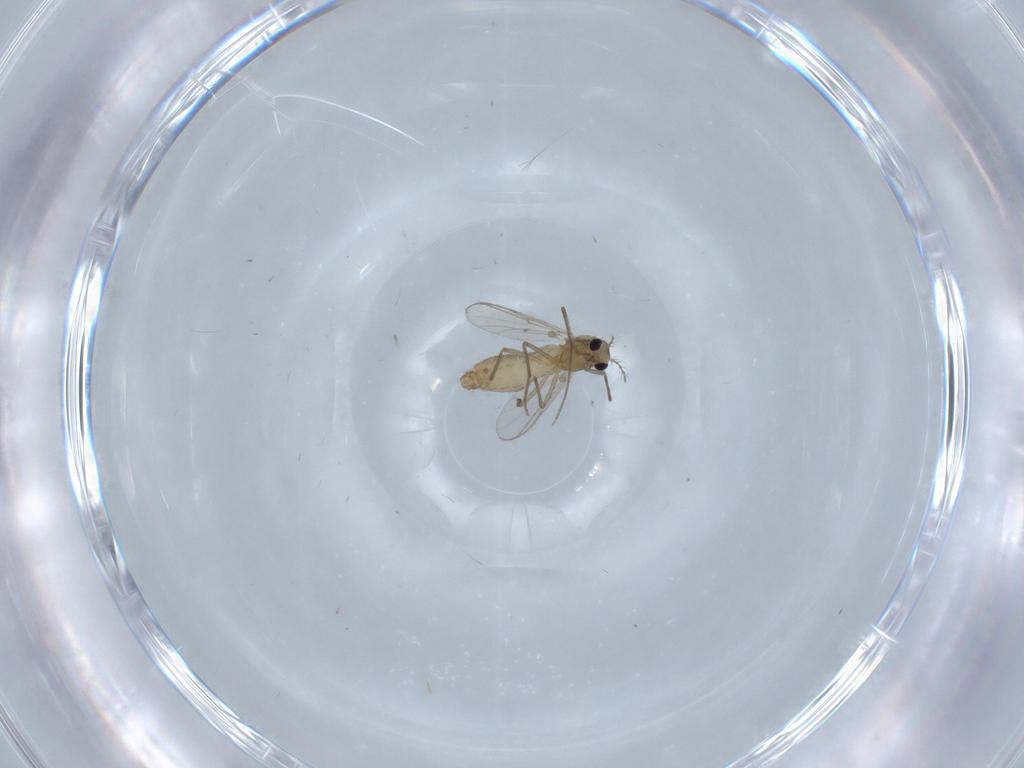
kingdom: Animalia
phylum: Arthropoda
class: Insecta
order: Diptera
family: Chironomidae
